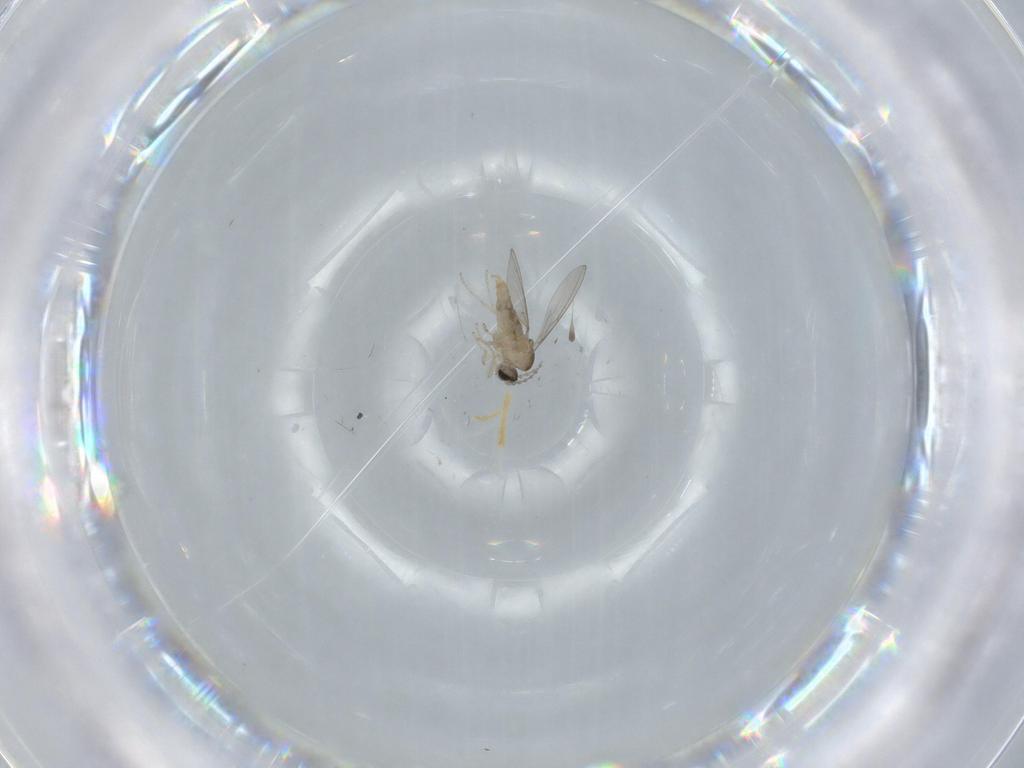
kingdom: Animalia
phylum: Arthropoda
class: Insecta
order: Diptera
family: Cecidomyiidae
